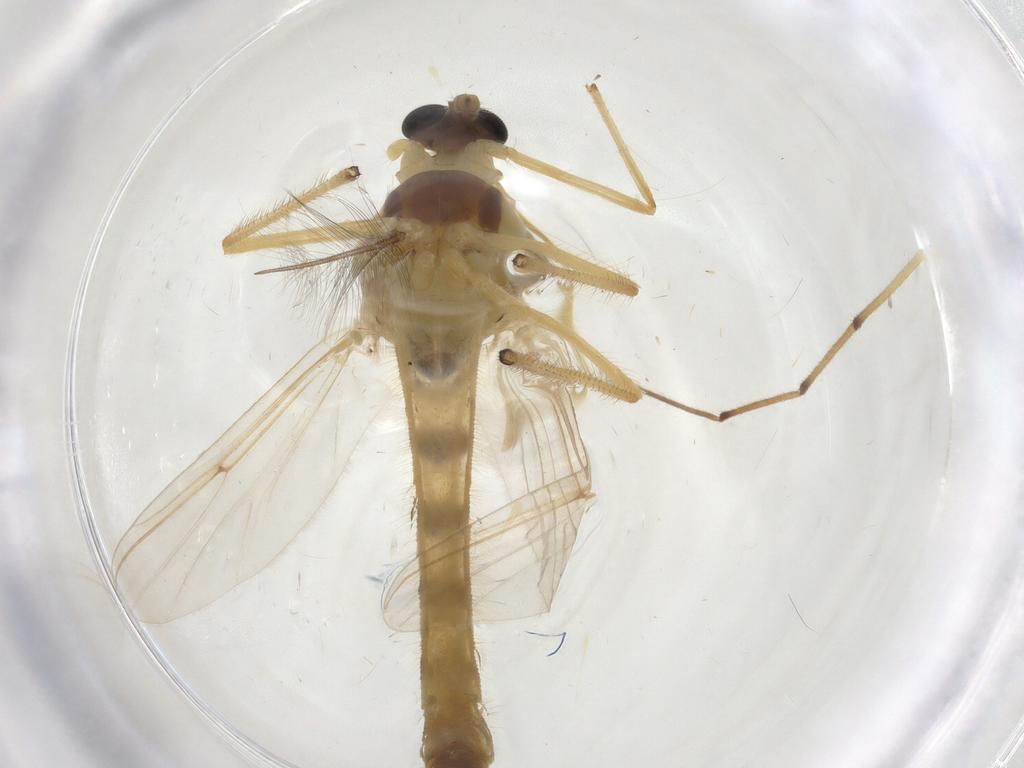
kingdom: Animalia
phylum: Arthropoda
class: Insecta
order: Diptera
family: Chironomidae
